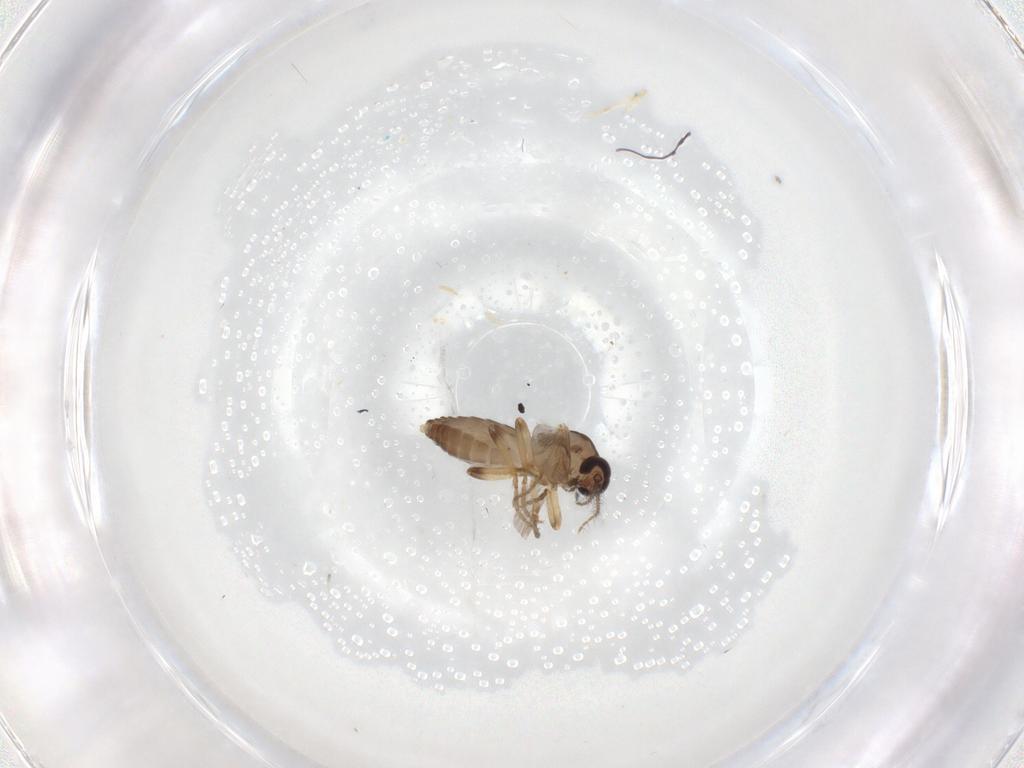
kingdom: Animalia
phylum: Arthropoda
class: Insecta
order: Diptera
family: Ceratopogonidae
